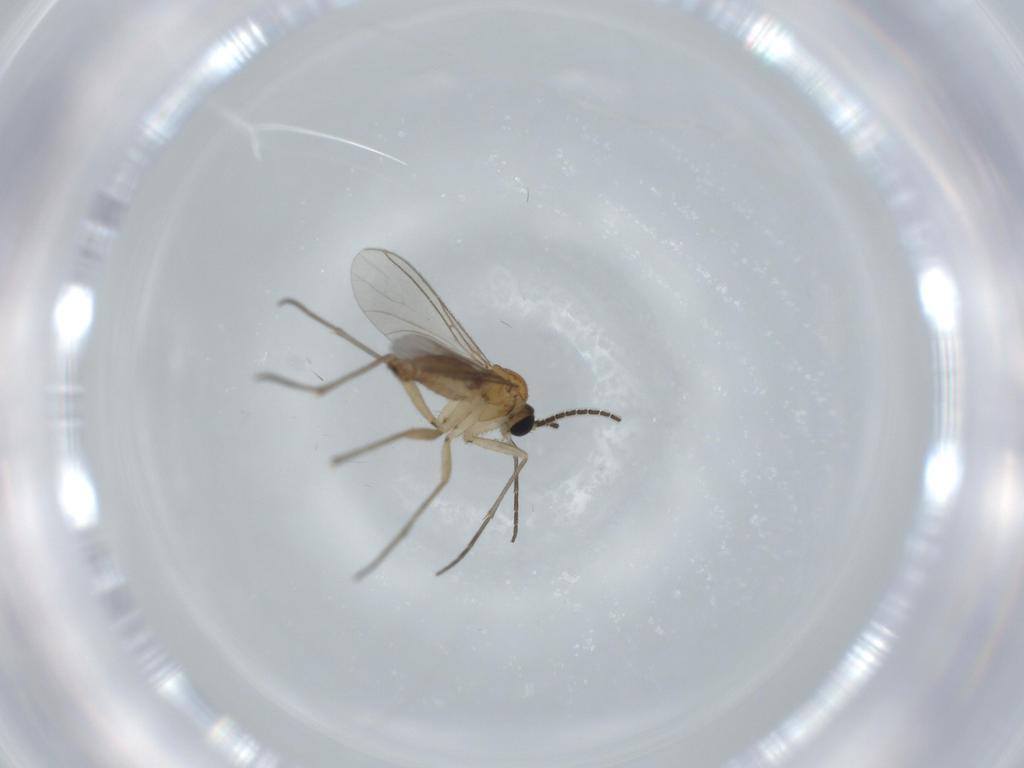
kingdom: Animalia
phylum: Arthropoda
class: Insecta
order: Diptera
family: Sciaridae
